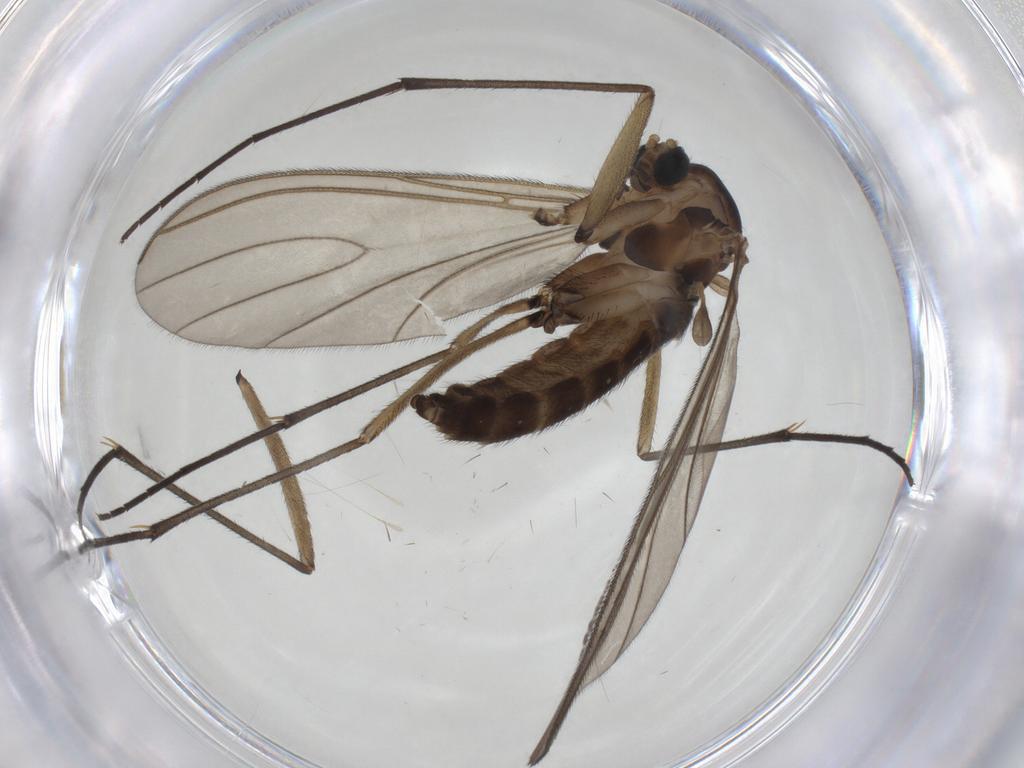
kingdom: Animalia
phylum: Arthropoda
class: Insecta
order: Diptera
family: Sciaridae
